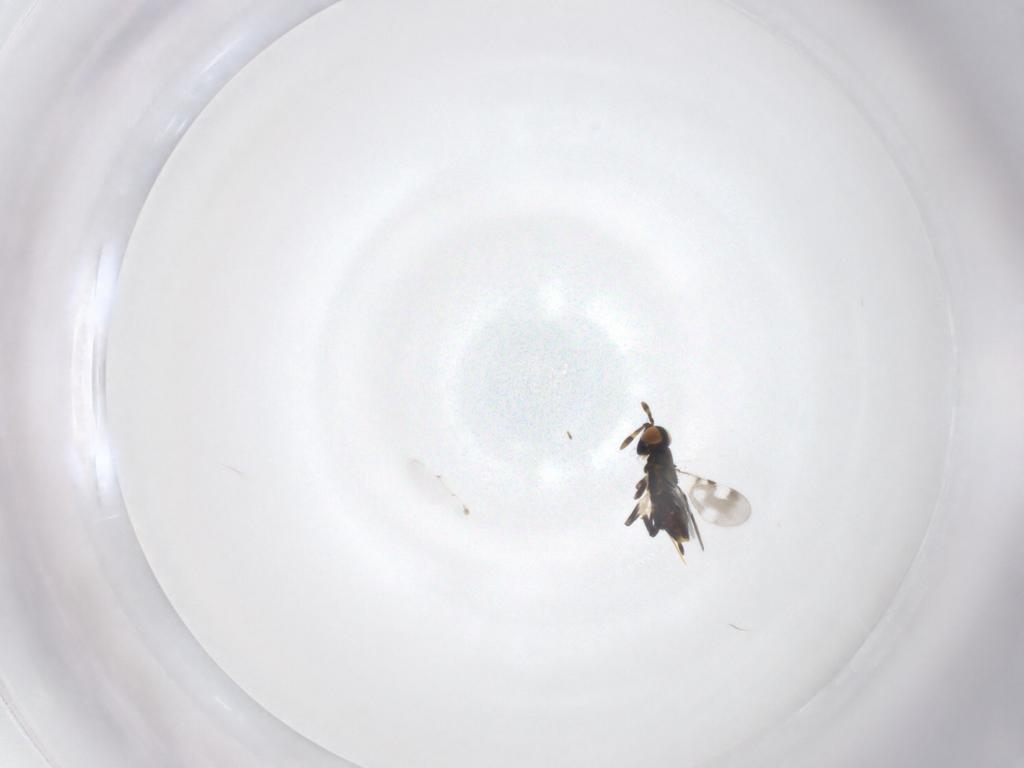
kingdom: Animalia
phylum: Arthropoda
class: Insecta
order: Hymenoptera
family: Encyrtidae
